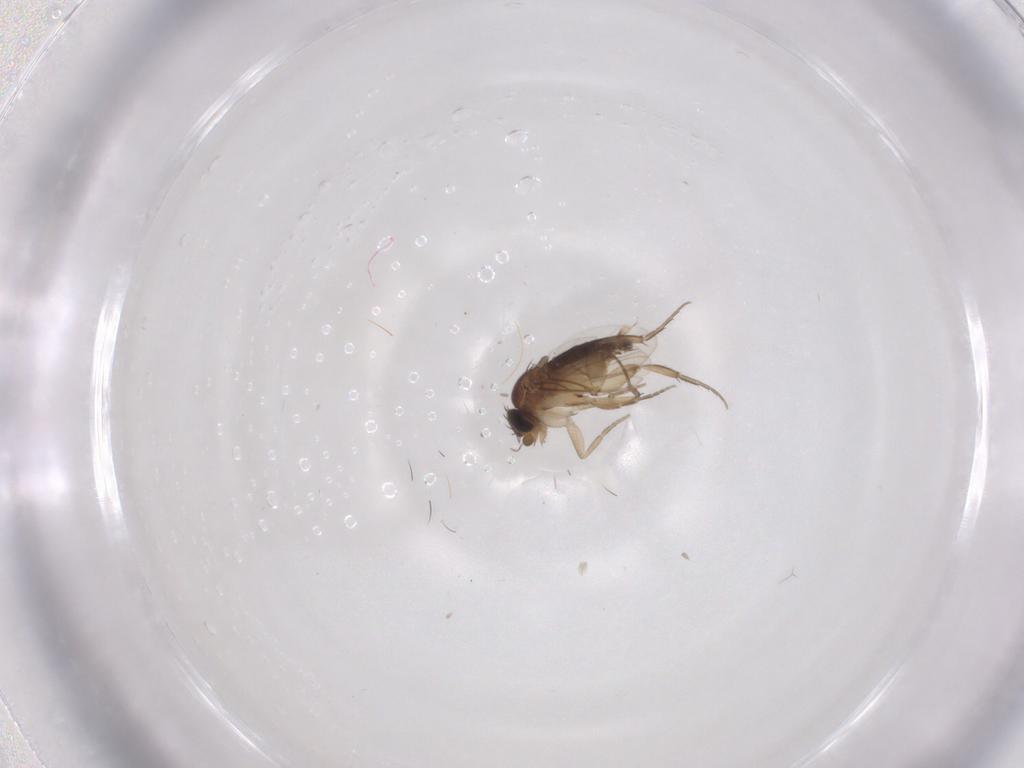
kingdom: Animalia
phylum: Arthropoda
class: Insecta
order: Diptera
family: Phoridae
